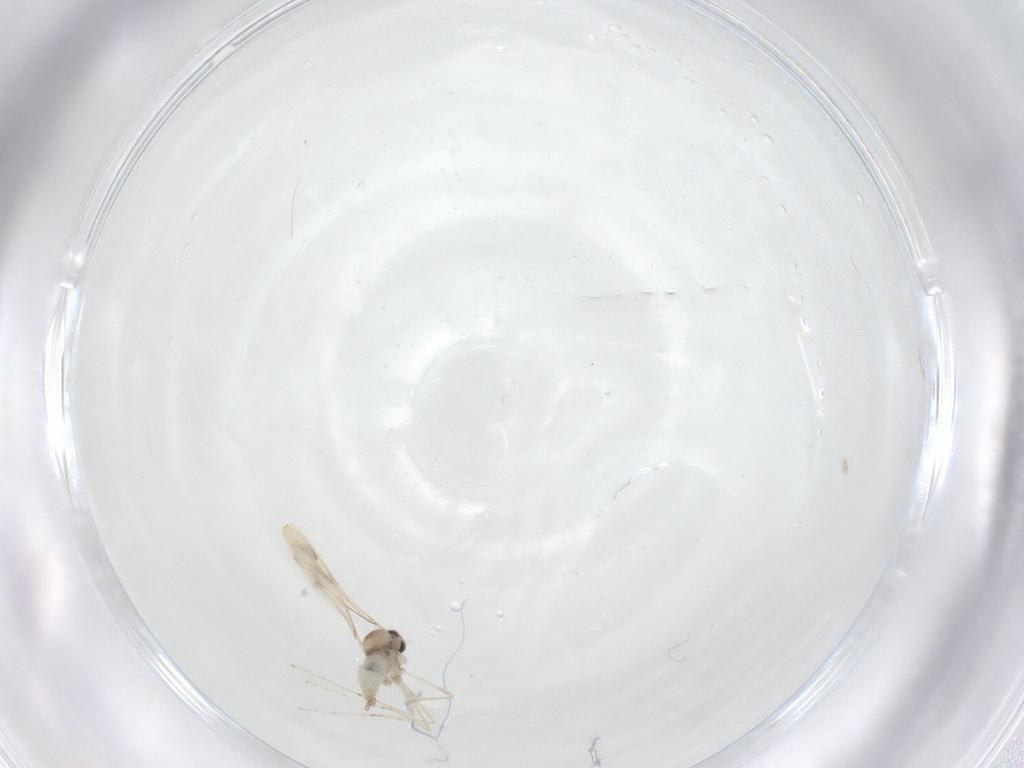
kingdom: Animalia
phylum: Arthropoda
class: Insecta
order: Diptera
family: Cecidomyiidae
